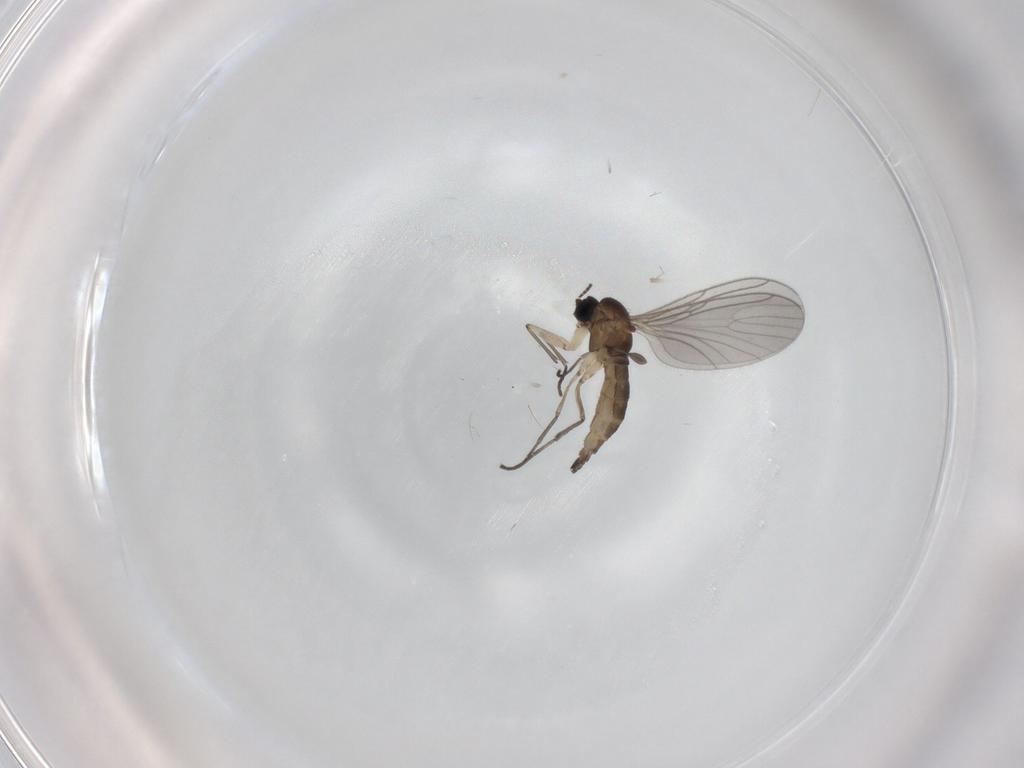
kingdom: Animalia
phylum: Arthropoda
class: Insecta
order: Diptera
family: Sciaridae
